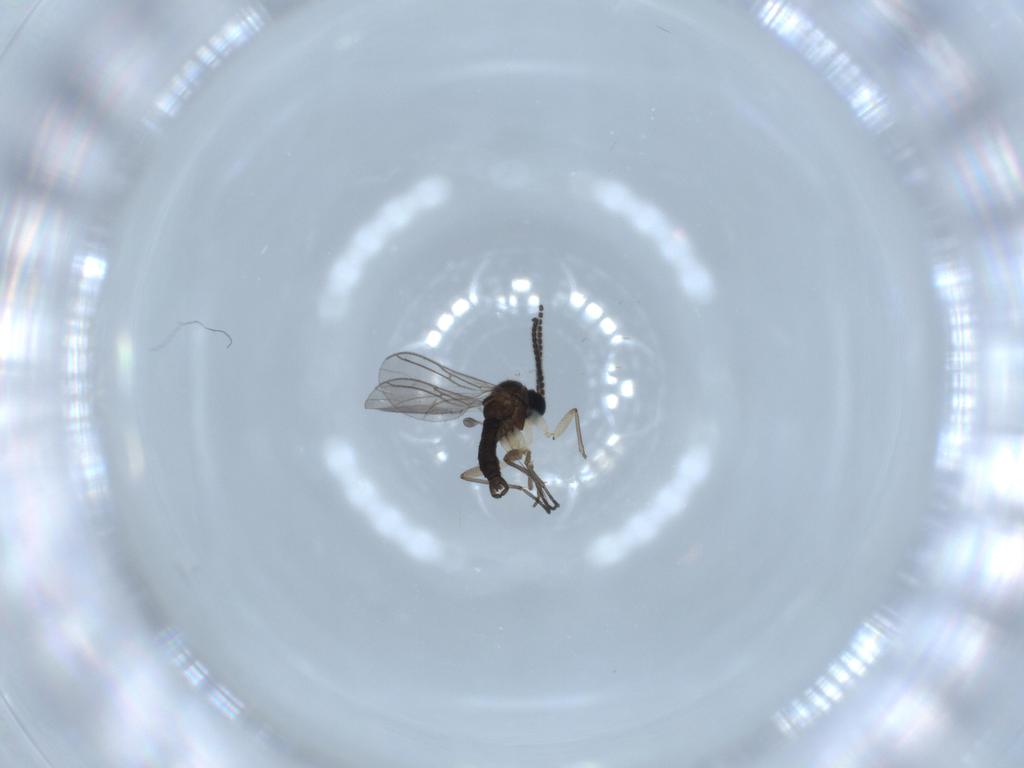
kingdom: Animalia
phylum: Arthropoda
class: Insecta
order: Diptera
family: Sciaridae
